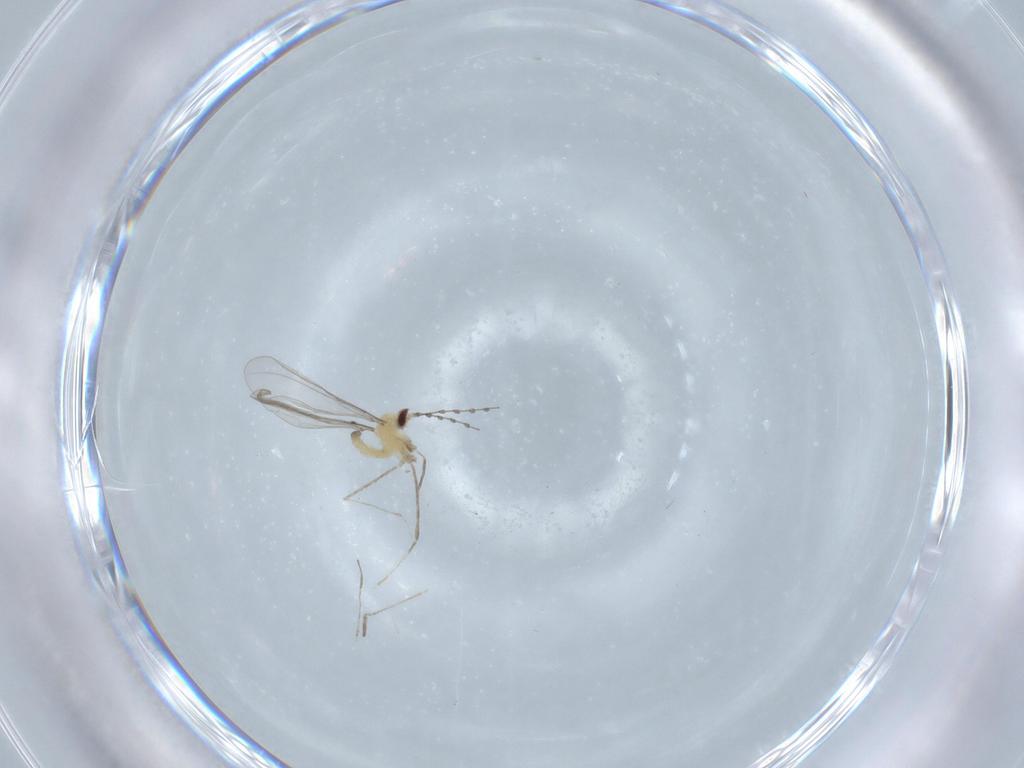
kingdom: Animalia
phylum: Arthropoda
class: Insecta
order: Diptera
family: Cecidomyiidae
